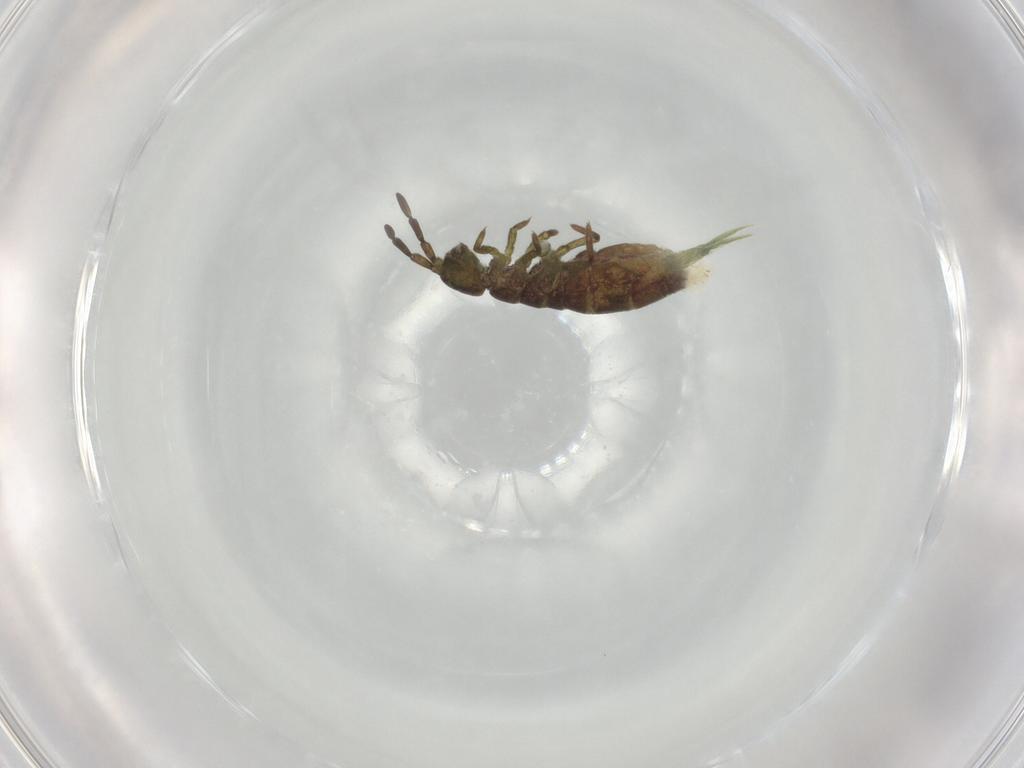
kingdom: Animalia
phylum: Arthropoda
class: Collembola
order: Entomobryomorpha
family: Isotomidae
